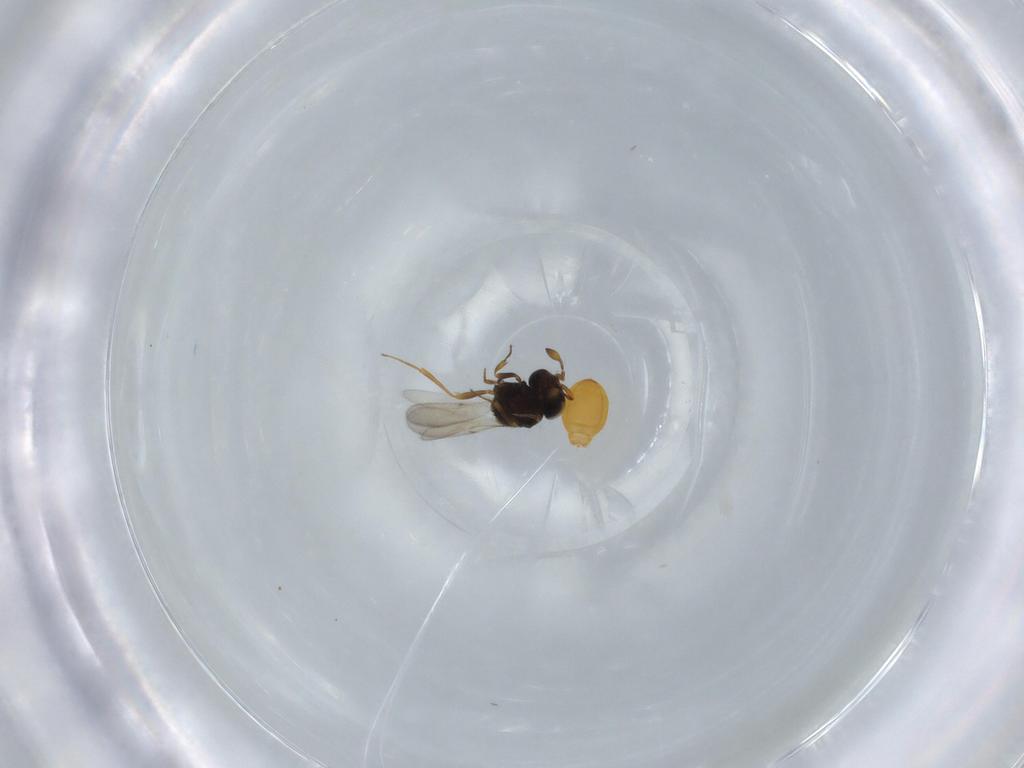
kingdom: Animalia
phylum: Arthropoda
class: Insecta
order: Hymenoptera
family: Scelionidae
